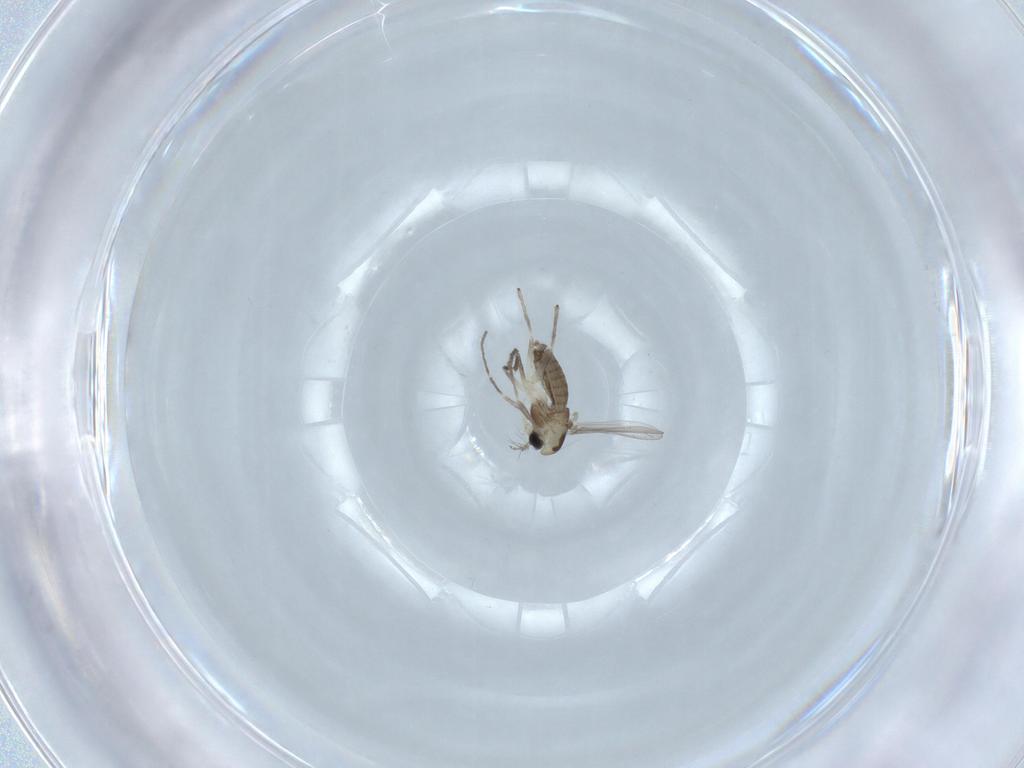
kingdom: Animalia
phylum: Arthropoda
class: Insecta
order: Diptera
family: Chironomidae
